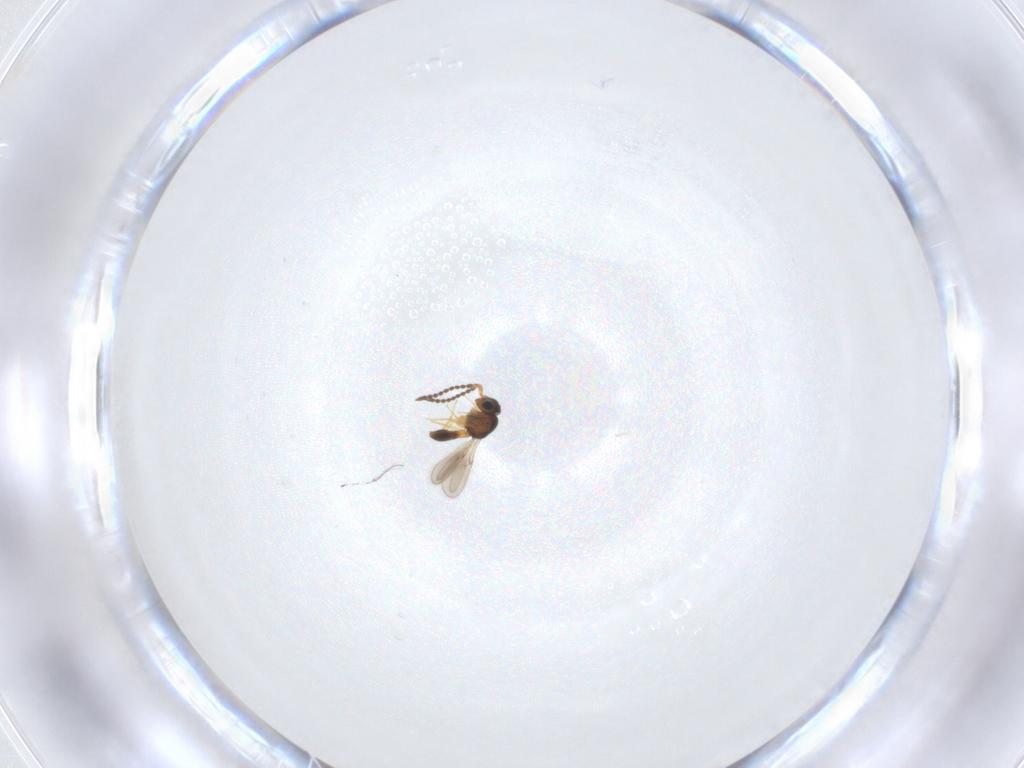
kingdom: Animalia
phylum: Arthropoda
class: Insecta
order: Hymenoptera
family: Scelionidae
